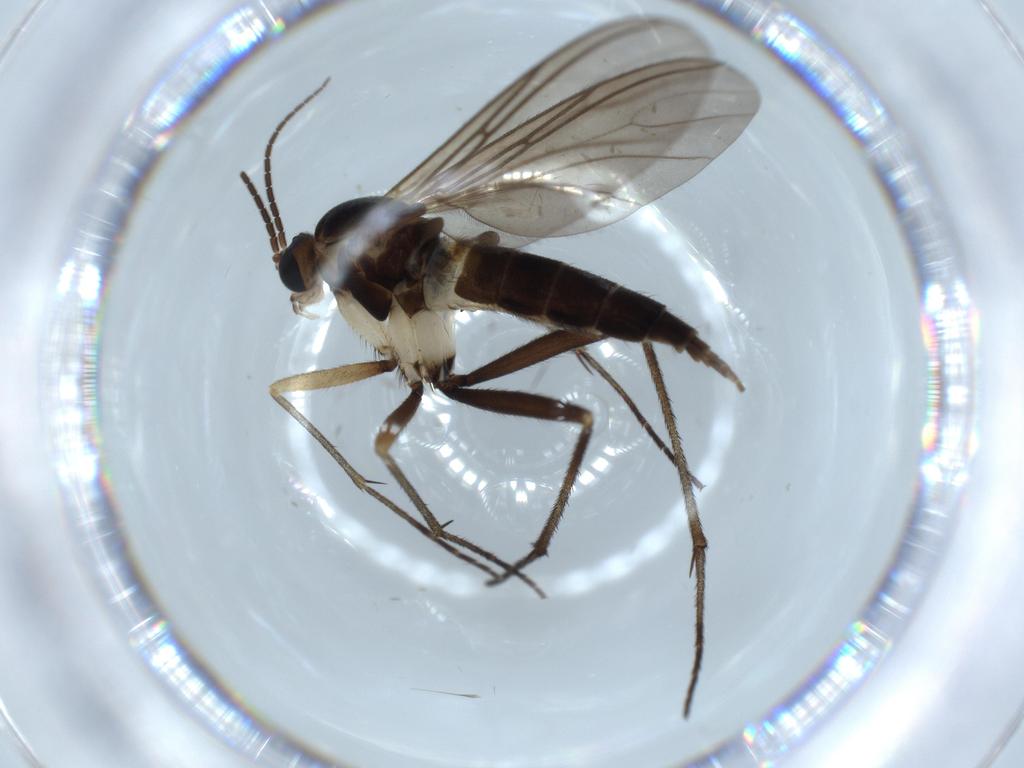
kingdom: Animalia
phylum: Arthropoda
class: Insecta
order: Diptera
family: Sciaridae
